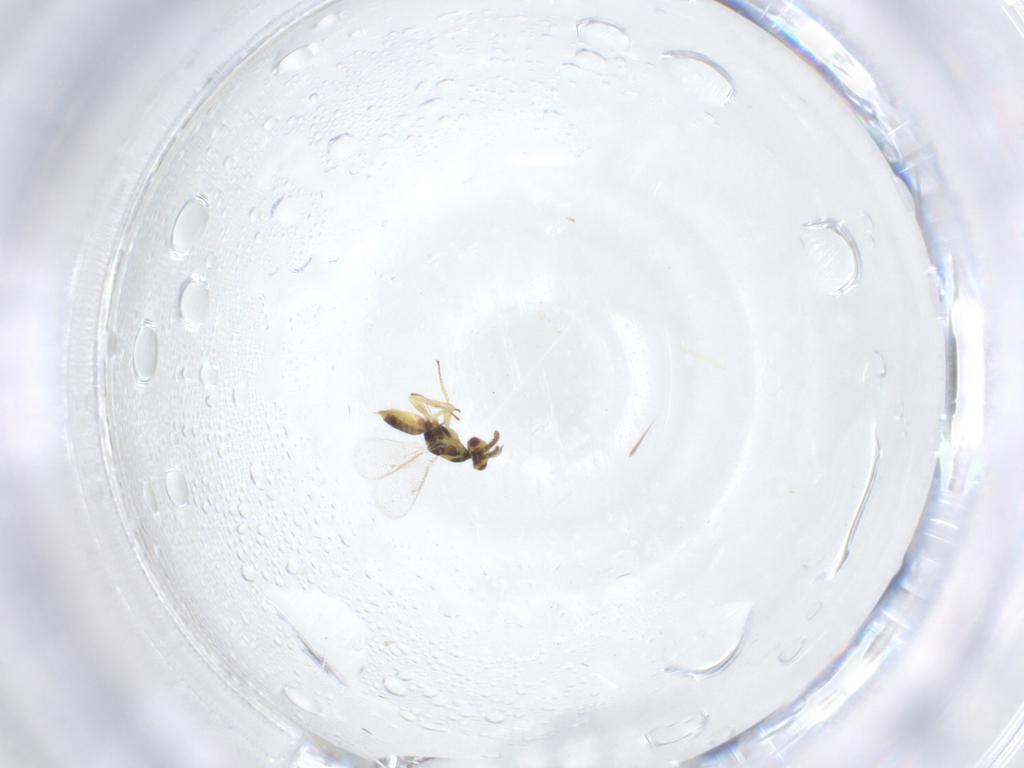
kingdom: Animalia
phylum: Arthropoda
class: Insecta
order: Hymenoptera
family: Eulophidae
